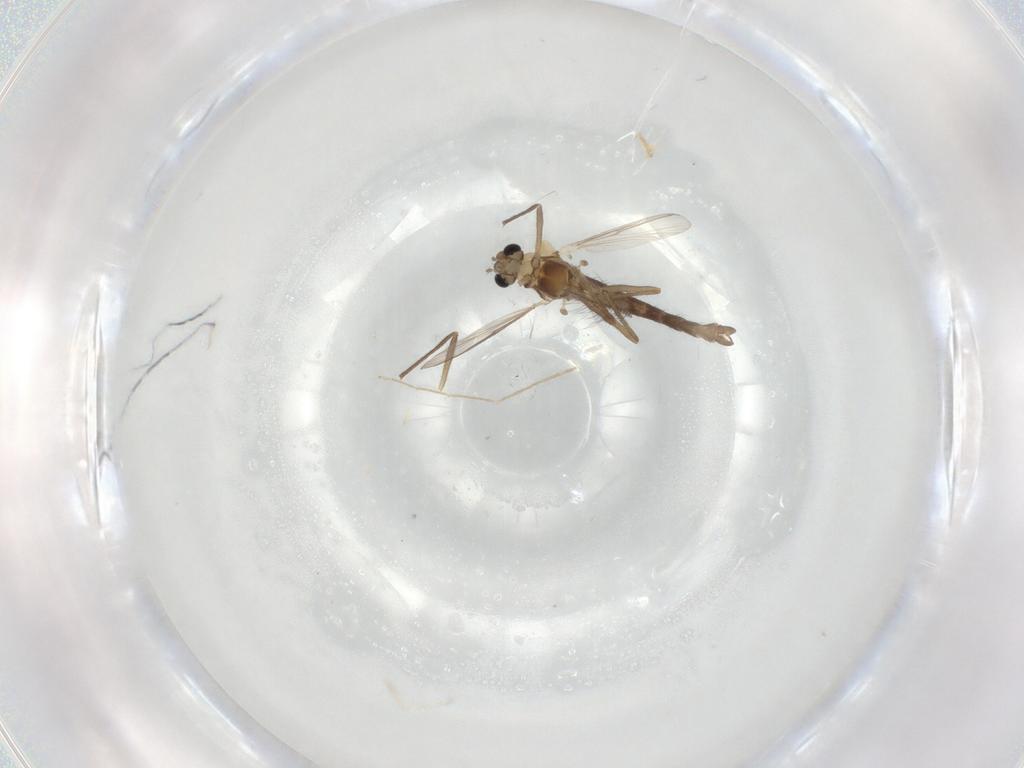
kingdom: Animalia
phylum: Arthropoda
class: Insecta
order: Diptera
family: Chironomidae
